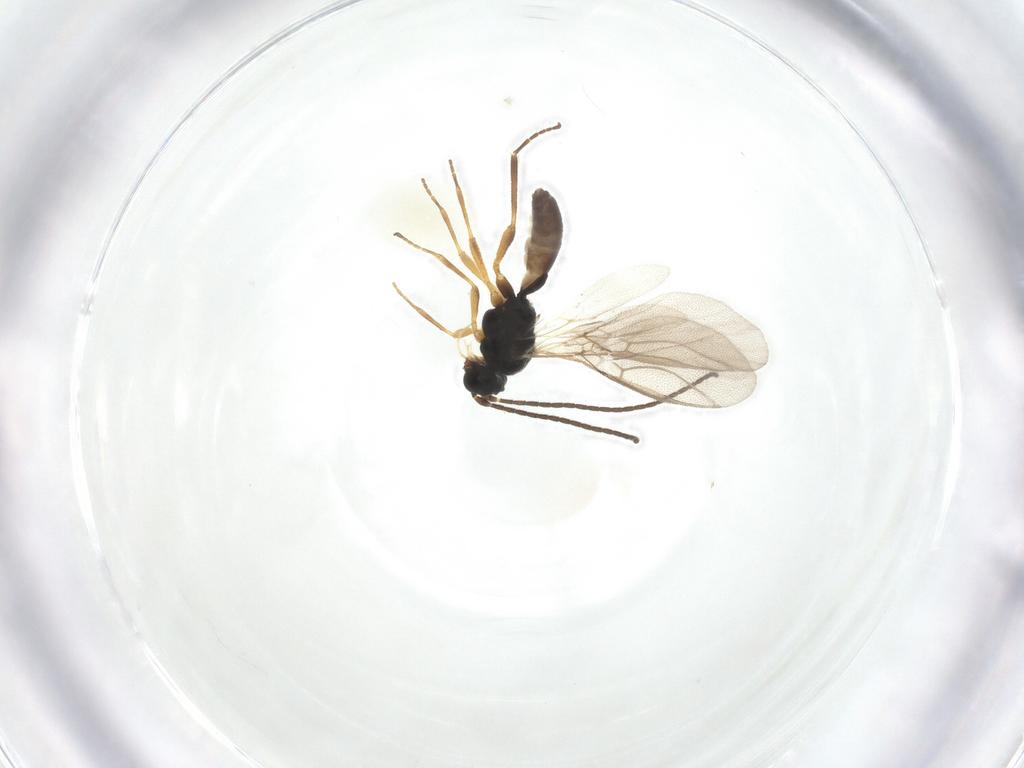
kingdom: Animalia
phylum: Arthropoda
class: Insecta
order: Hymenoptera
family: Braconidae
